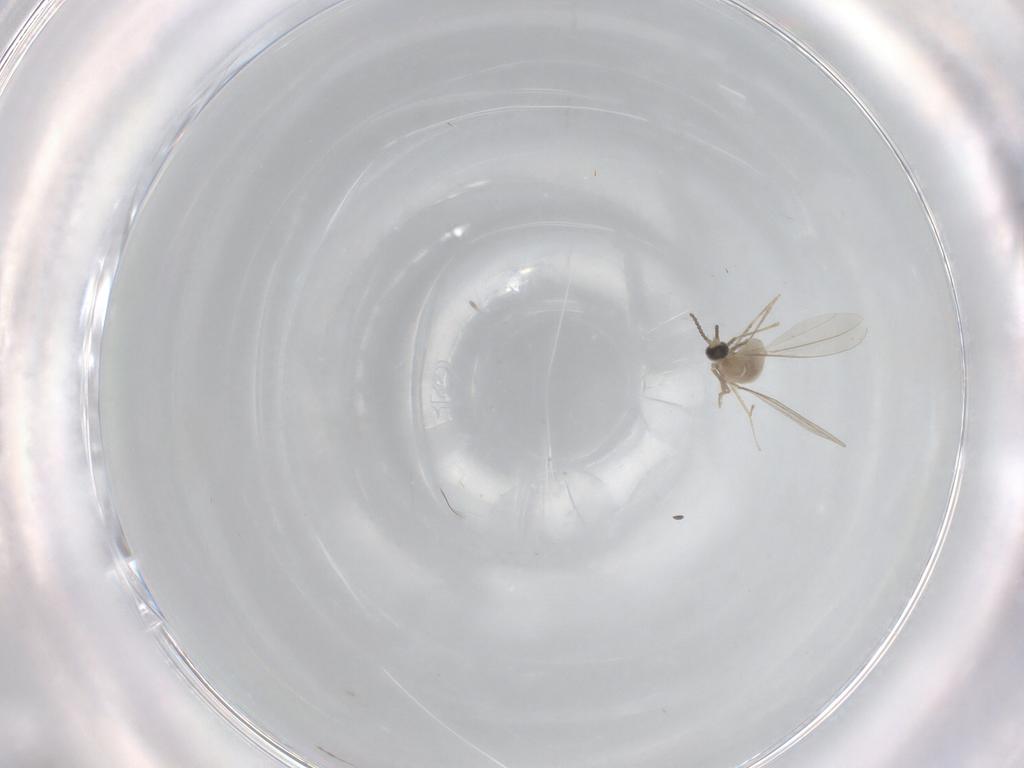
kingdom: Animalia
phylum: Arthropoda
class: Insecta
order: Diptera
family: Cecidomyiidae
